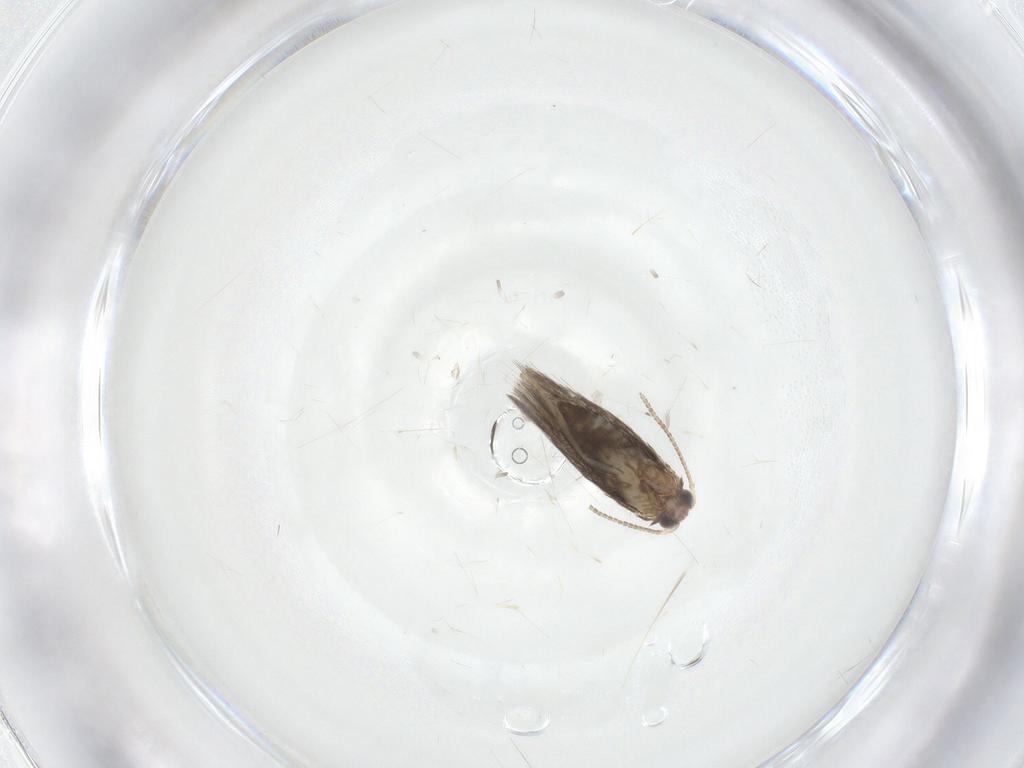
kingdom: Animalia
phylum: Arthropoda
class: Insecta
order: Lepidoptera
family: Nepticulidae
